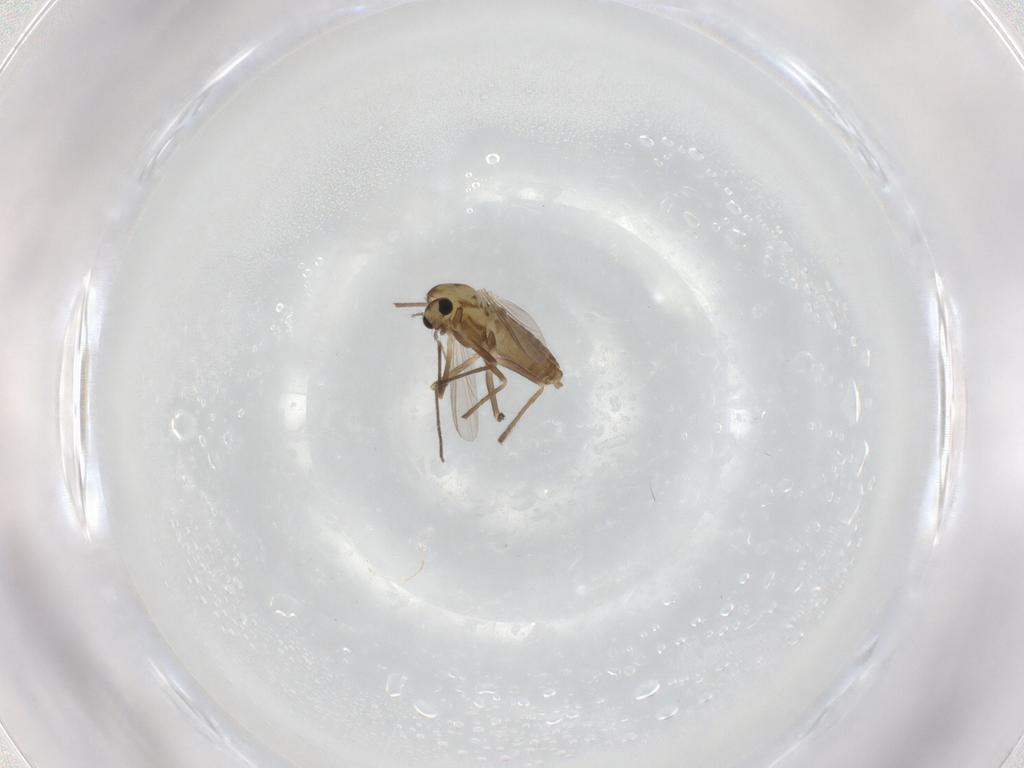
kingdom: Animalia
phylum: Arthropoda
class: Insecta
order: Diptera
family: Chironomidae
